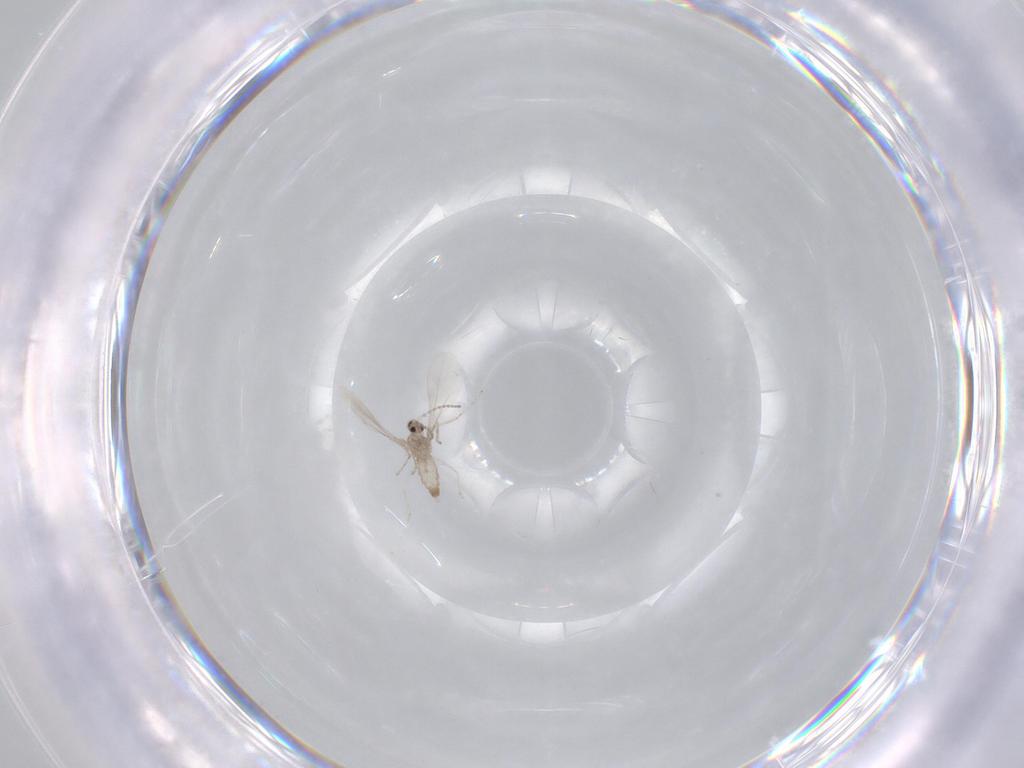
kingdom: Animalia
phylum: Arthropoda
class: Insecta
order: Diptera
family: Cecidomyiidae
